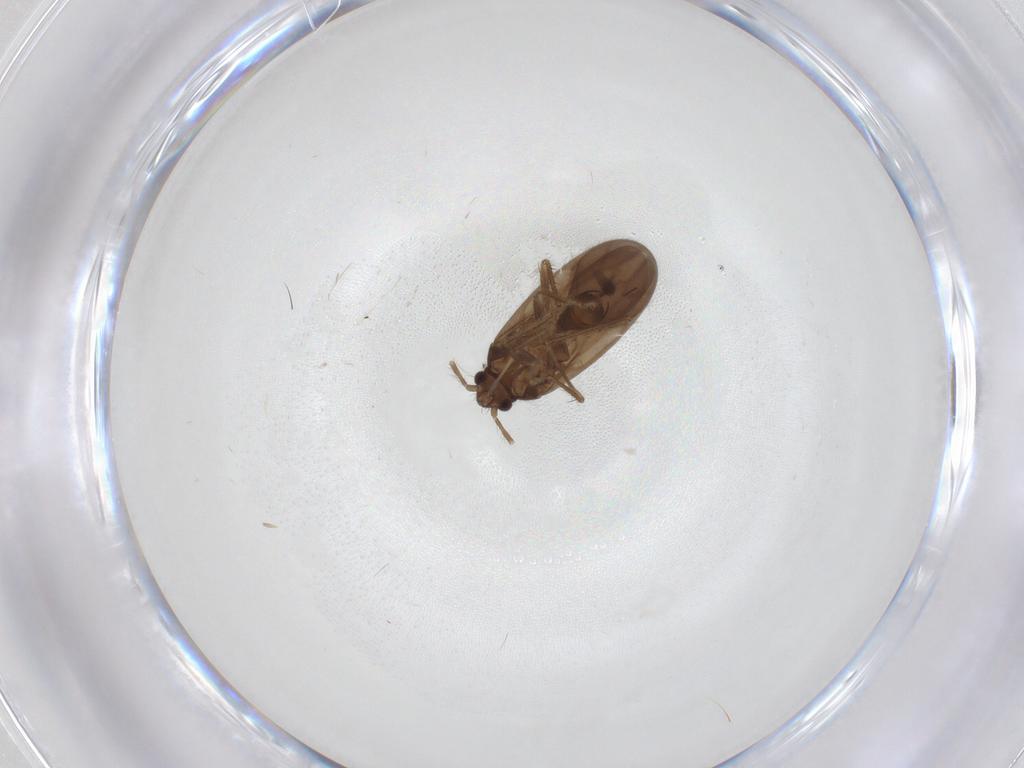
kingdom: Animalia
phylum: Arthropoda
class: Insecta
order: Hemiptera
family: Ceratocombidae
